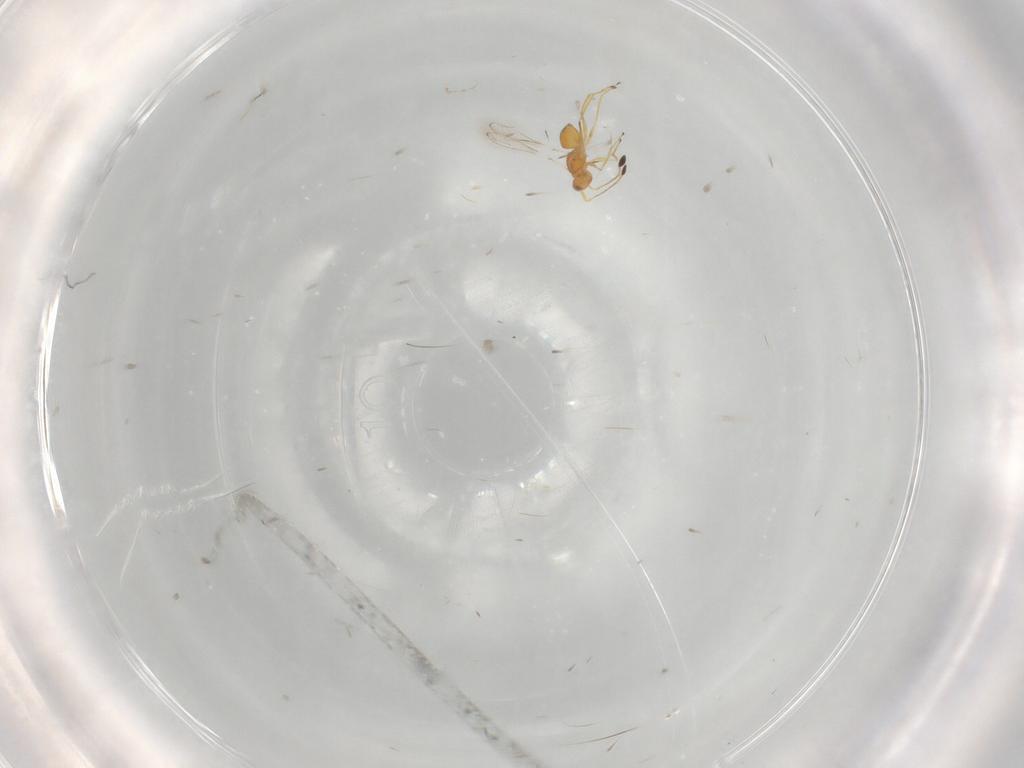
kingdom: Animalia
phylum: Arthropoda
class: Insecta
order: Hymenoptera
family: Mymaridae
